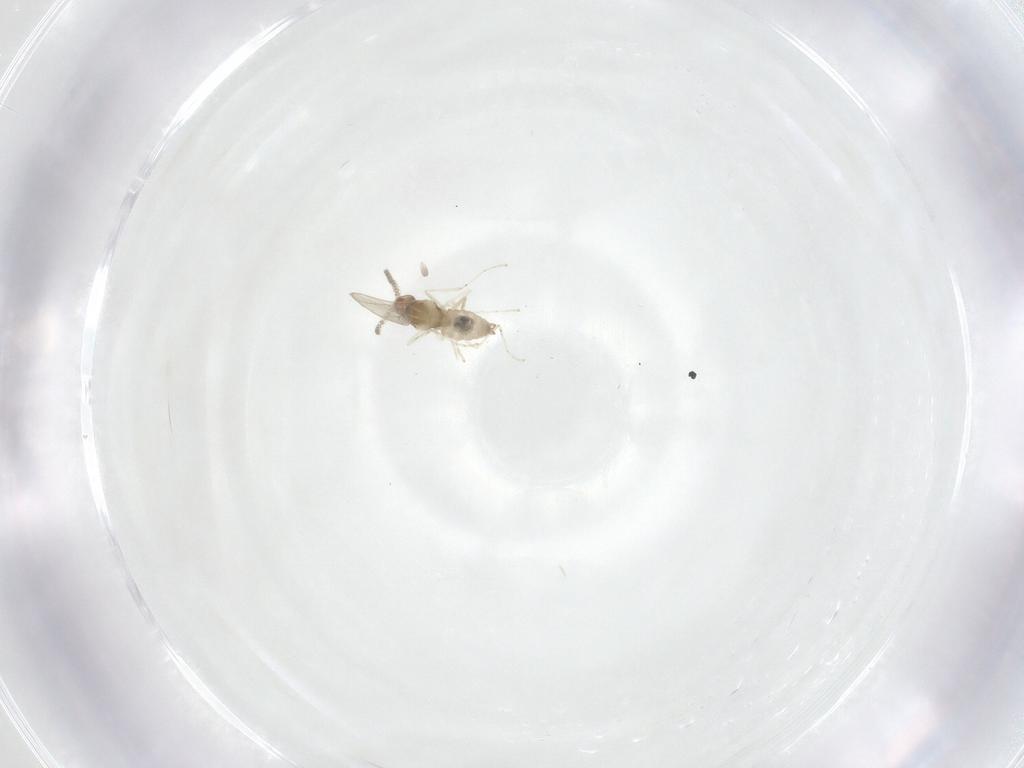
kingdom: Animalia
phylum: Arthropoda
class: Insecta
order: Diptera
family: Cecidomyiidae
